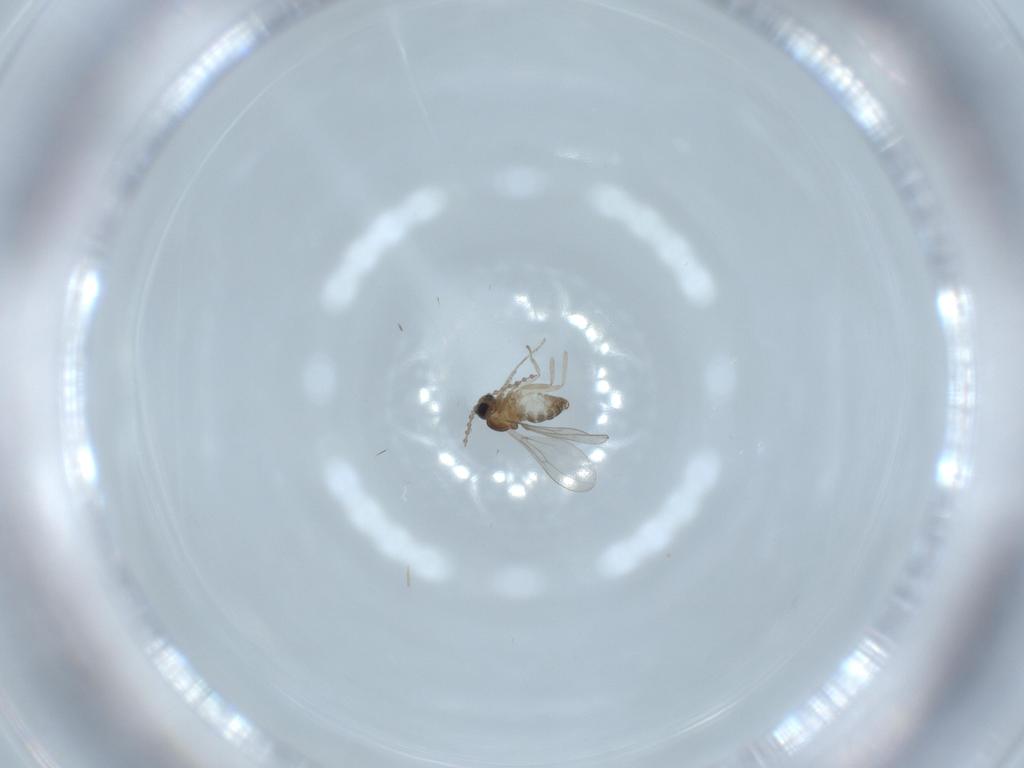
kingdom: Animalia
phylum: Arthropoda
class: Insecta
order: Diptera
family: Cecidomyiidae
